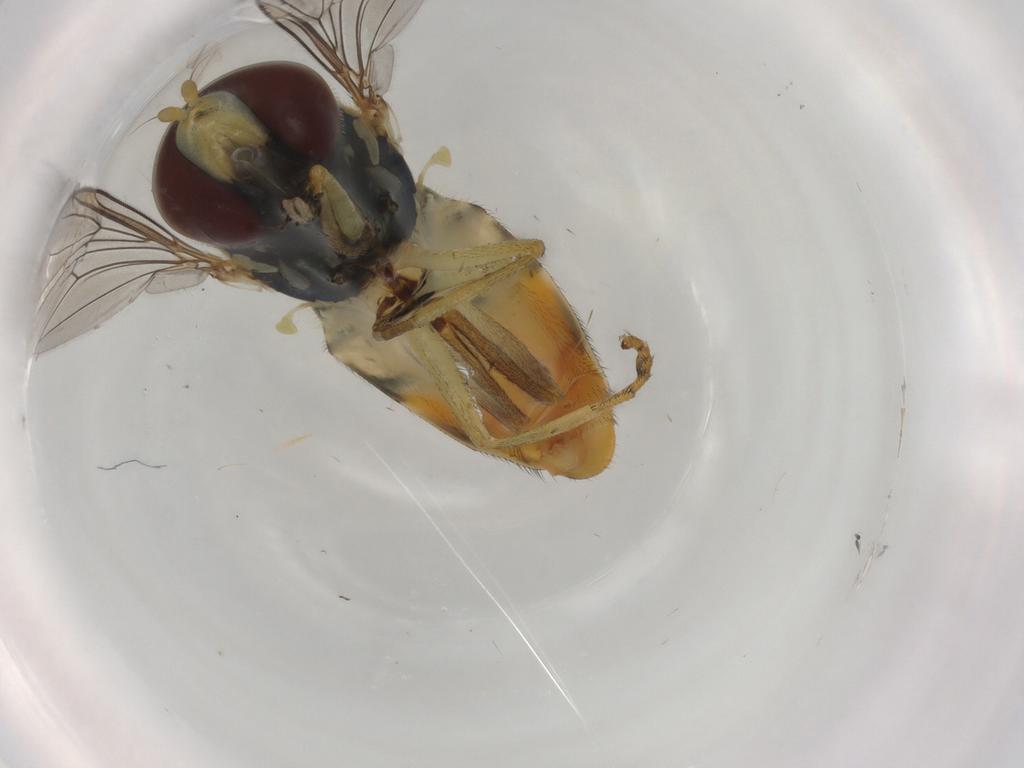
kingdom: Animalia
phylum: Arthropoda
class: Insecta
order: Diptera
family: Syrphidae
